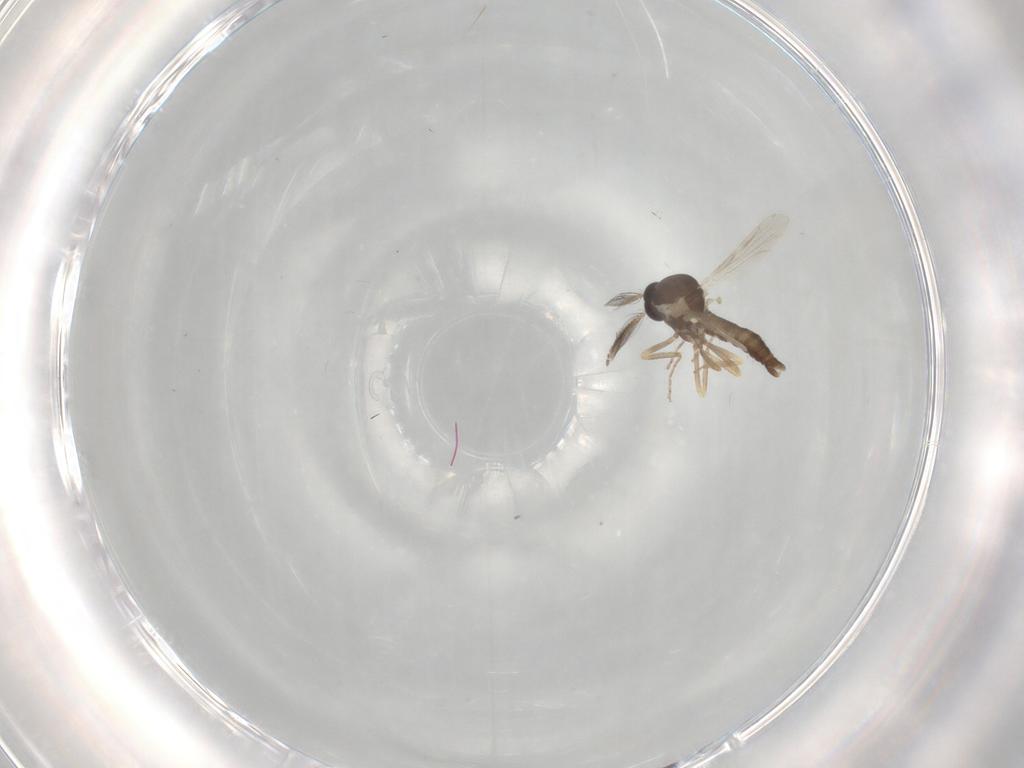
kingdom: Animalia
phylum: Arthropoda
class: Insecta
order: Diptera
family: Ceratopogonidae
